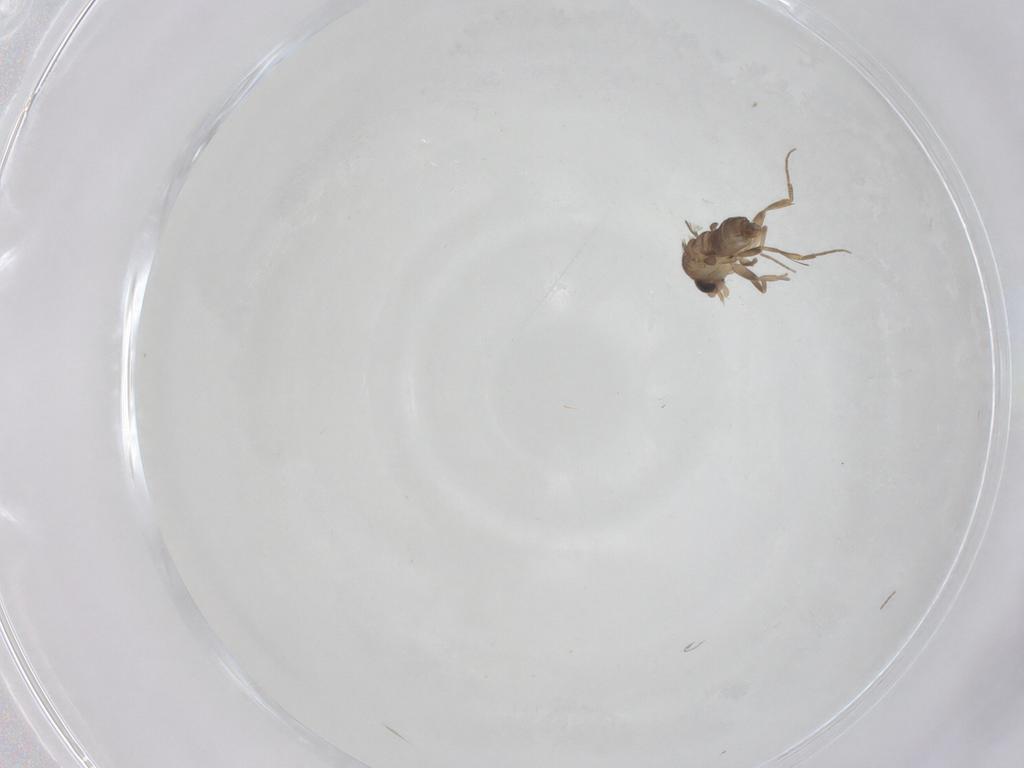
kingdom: Animalia
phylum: Arthropoda
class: Insecta
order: Diptera
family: Phoridae
